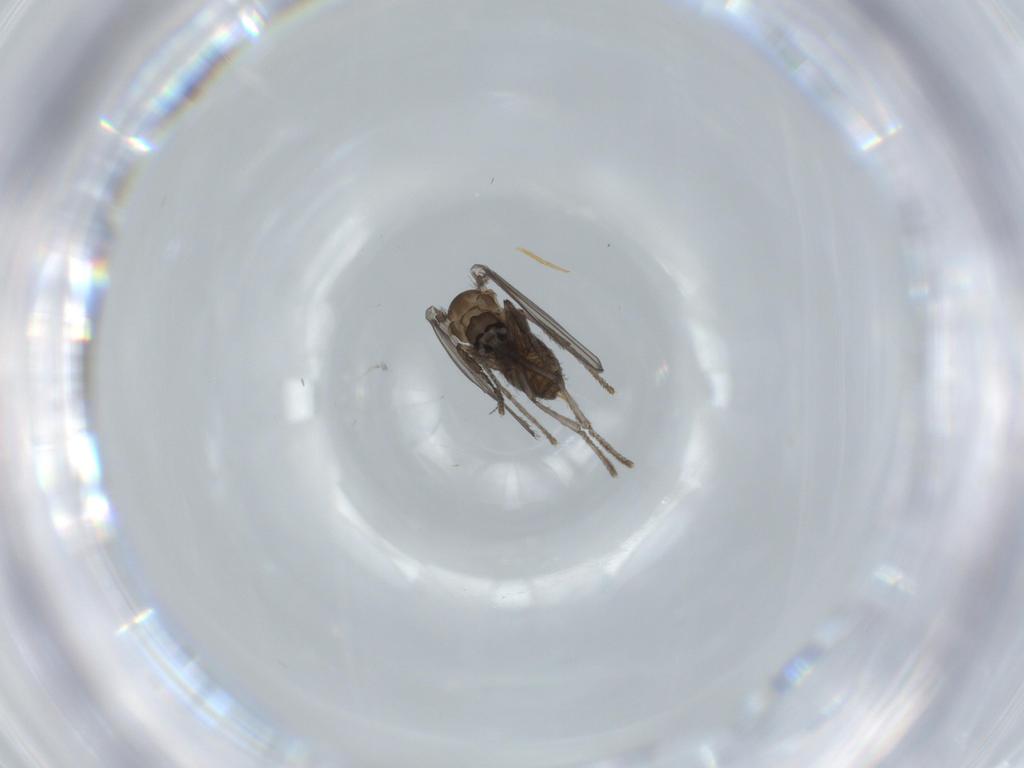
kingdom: Animalia
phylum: Arthropoda
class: Insecta
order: Diptera
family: Psychodidae
